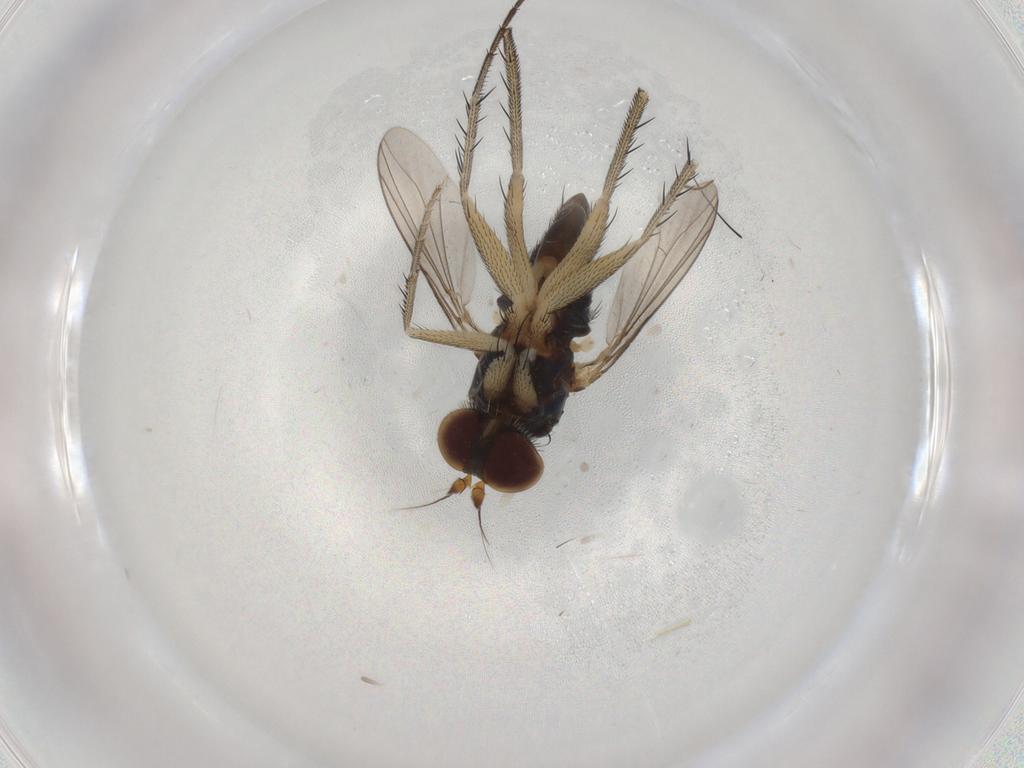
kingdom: Animalia
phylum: Arthropoda
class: Insecta
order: Diptera
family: Dolichopodidae
